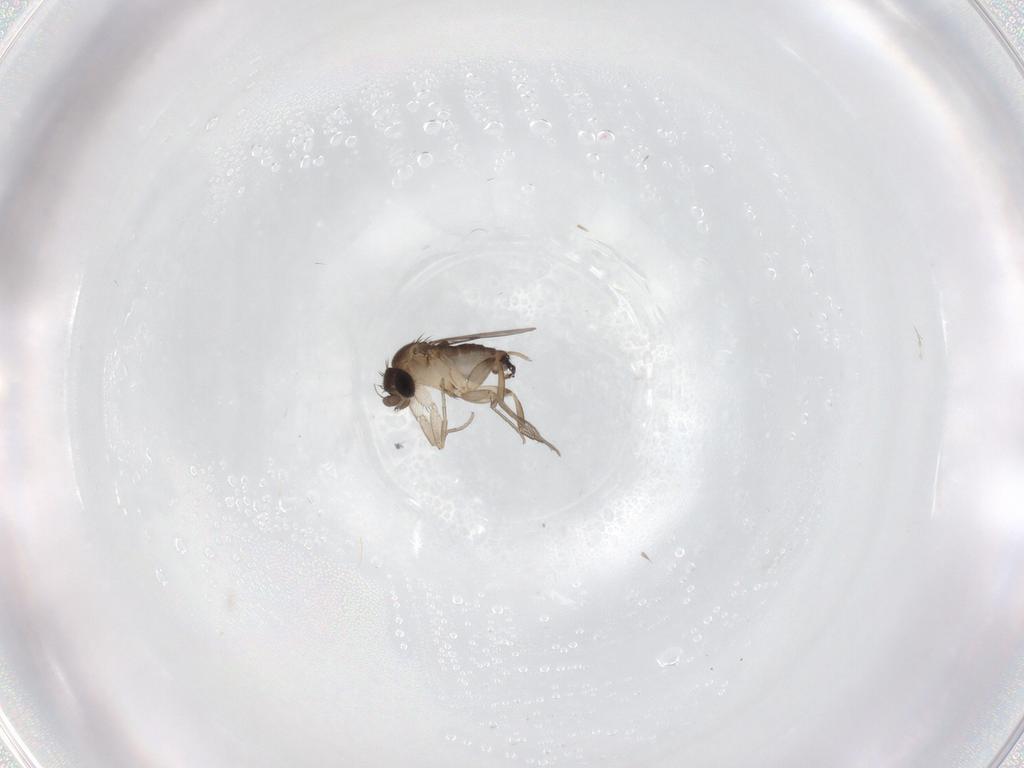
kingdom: Animalia
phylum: Arthropoda
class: Insecta
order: Diptera
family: Phoridae
